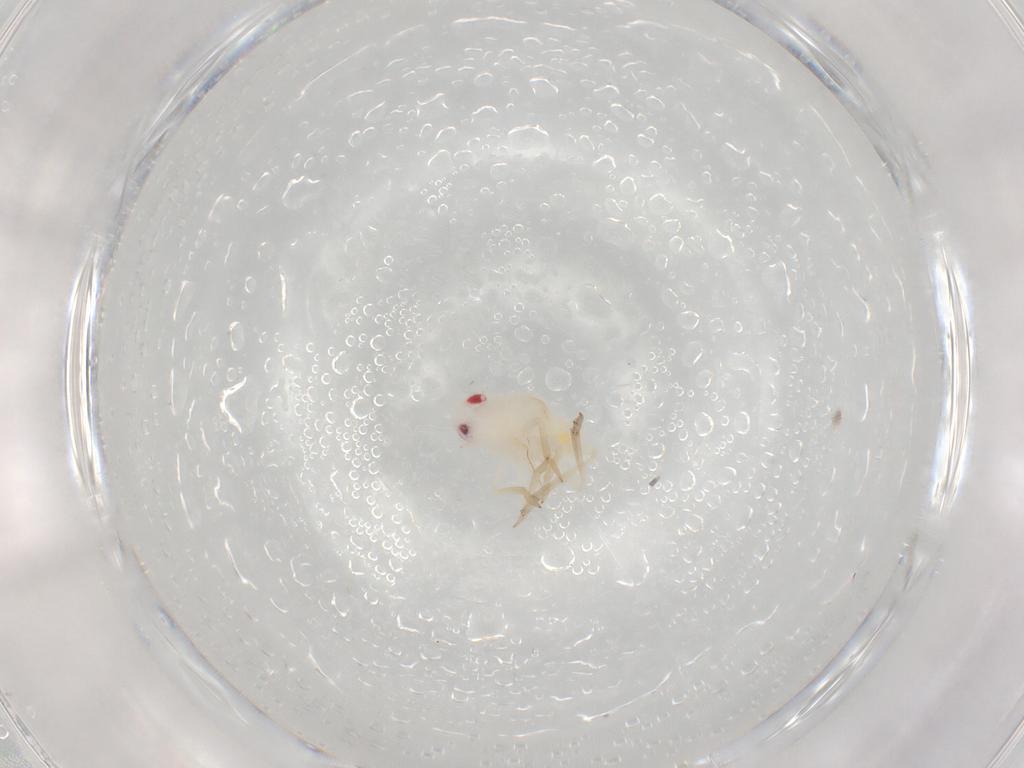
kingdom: Animalia
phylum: Arthropoda
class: Insecta
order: Hemiptera
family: Tropiduchidae
